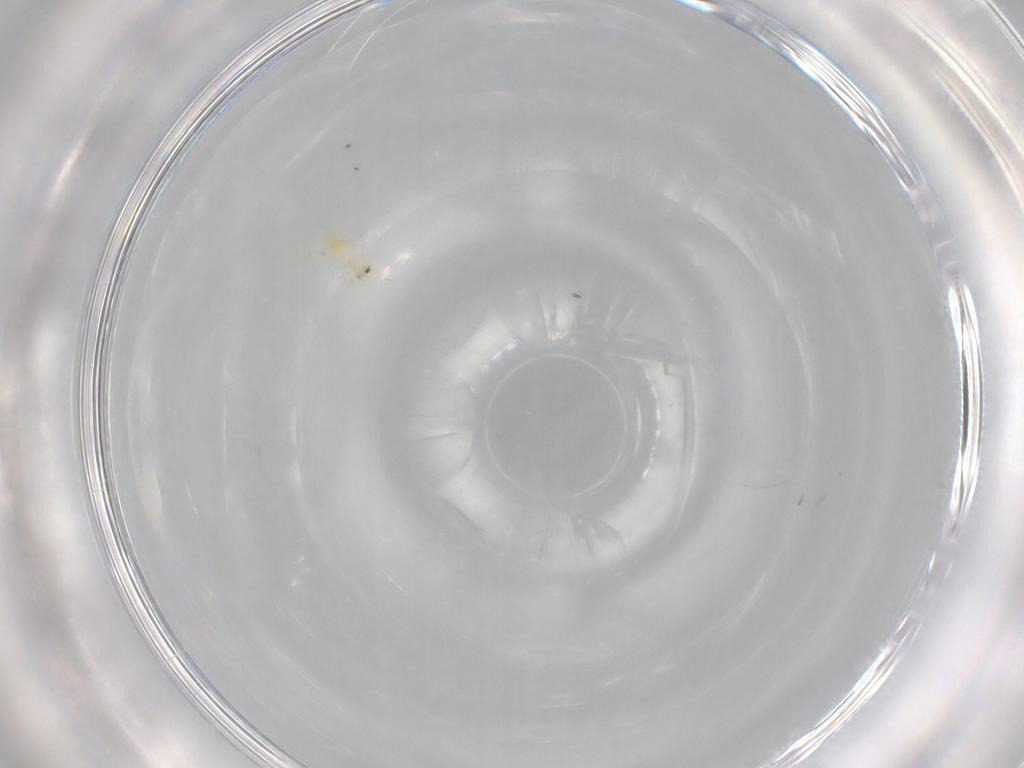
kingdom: Animalia
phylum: Arthropoda
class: Insecta
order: Hemiptera
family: Aleyrodidae
